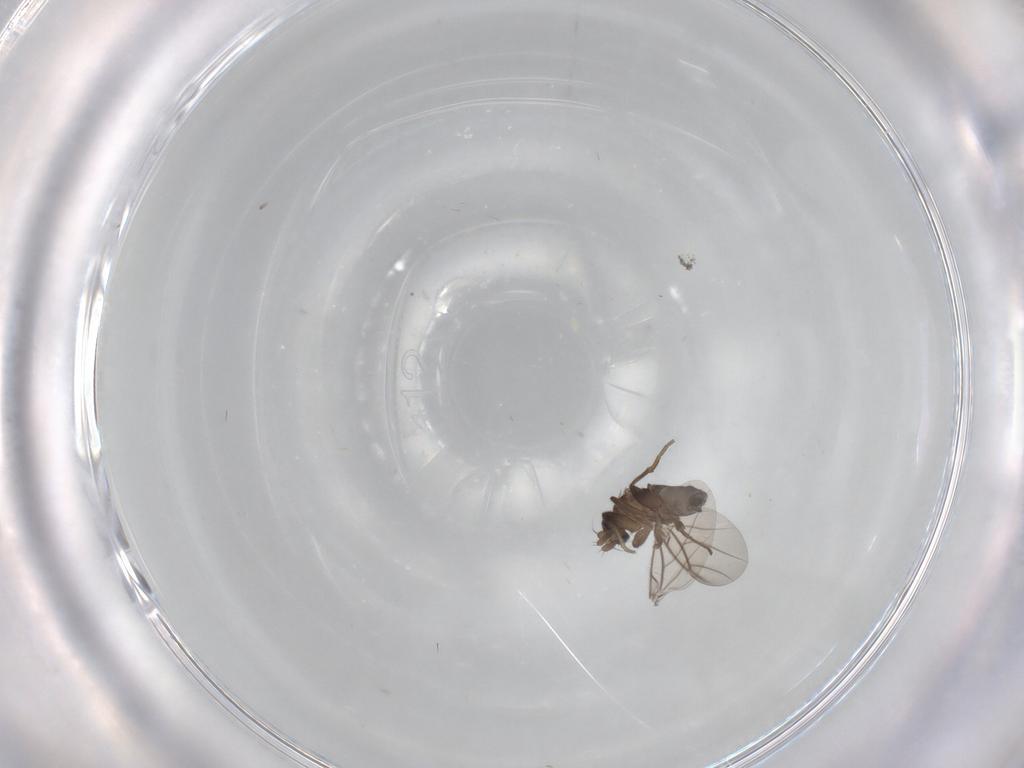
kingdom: Animalia
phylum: Arthropoda
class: Insecta
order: Diptera
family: Phoridae
